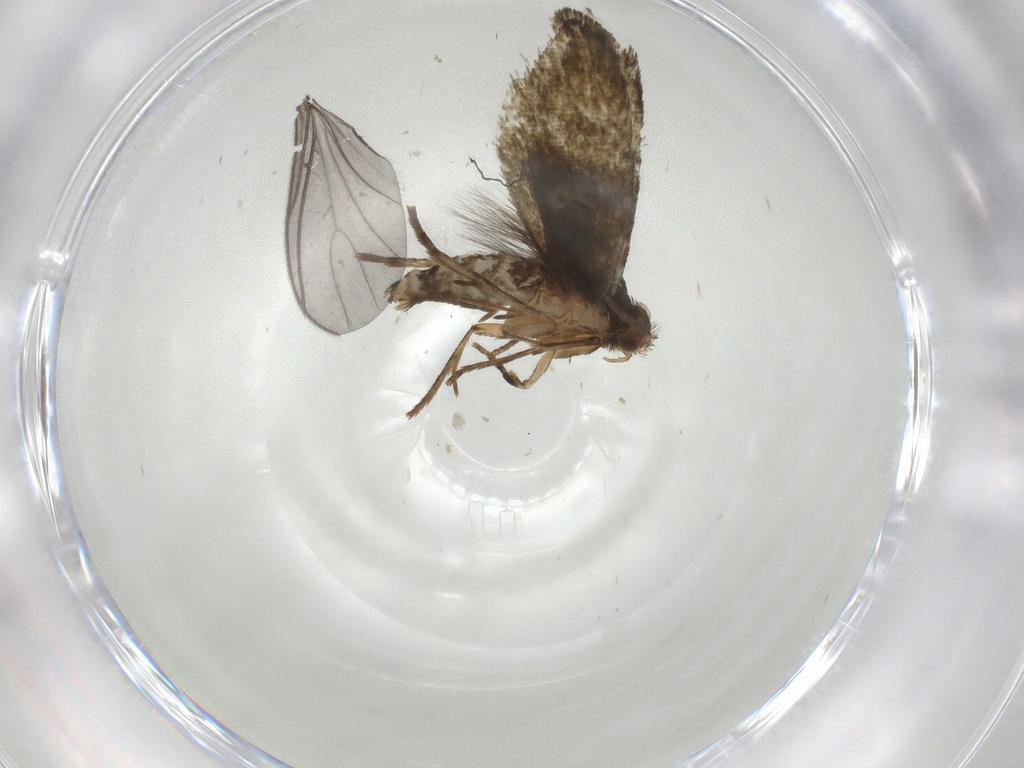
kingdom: Animalia
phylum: Arthropoda
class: Insecta
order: Lepidoptera
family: Tineidae
